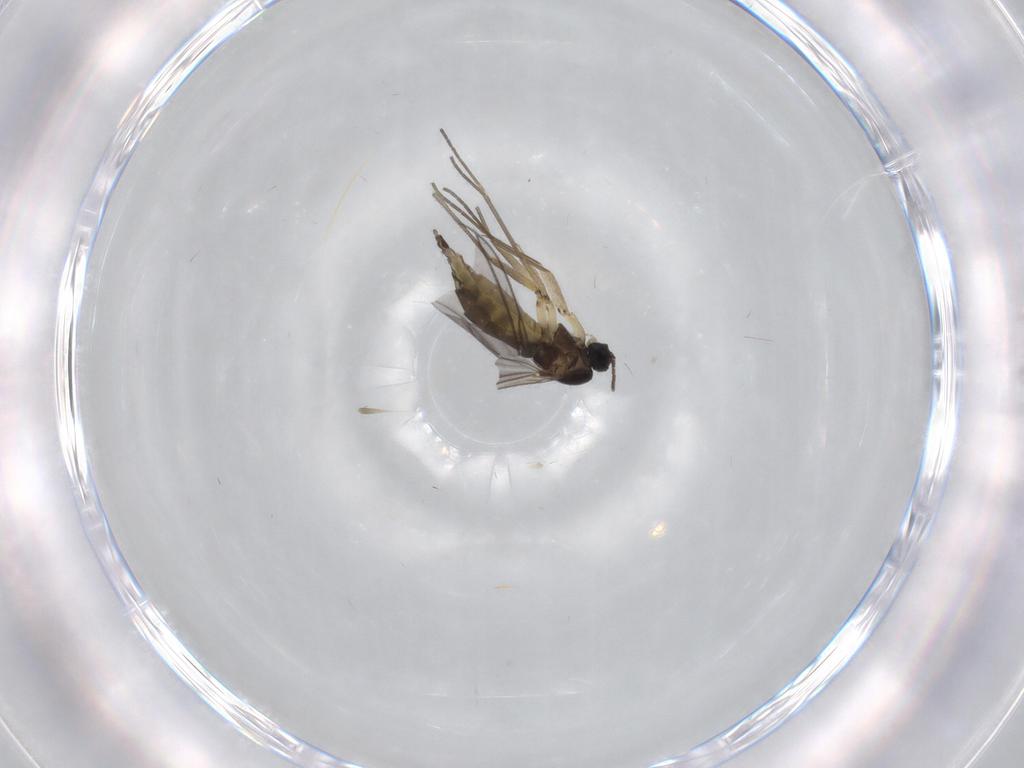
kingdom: Animalia
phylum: Arthropoda
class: Insecta
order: Diptera
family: Sciaridae
